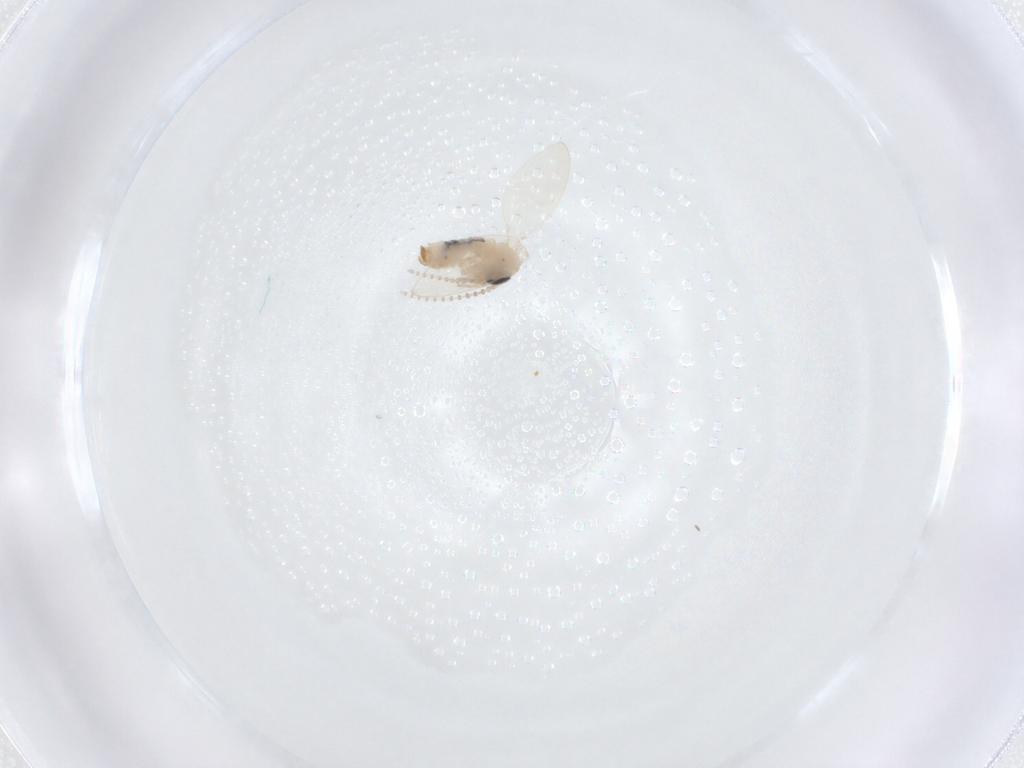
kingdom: Animalia
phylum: Arthropoda
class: Insecta
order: Diptera
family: Psychodidae
